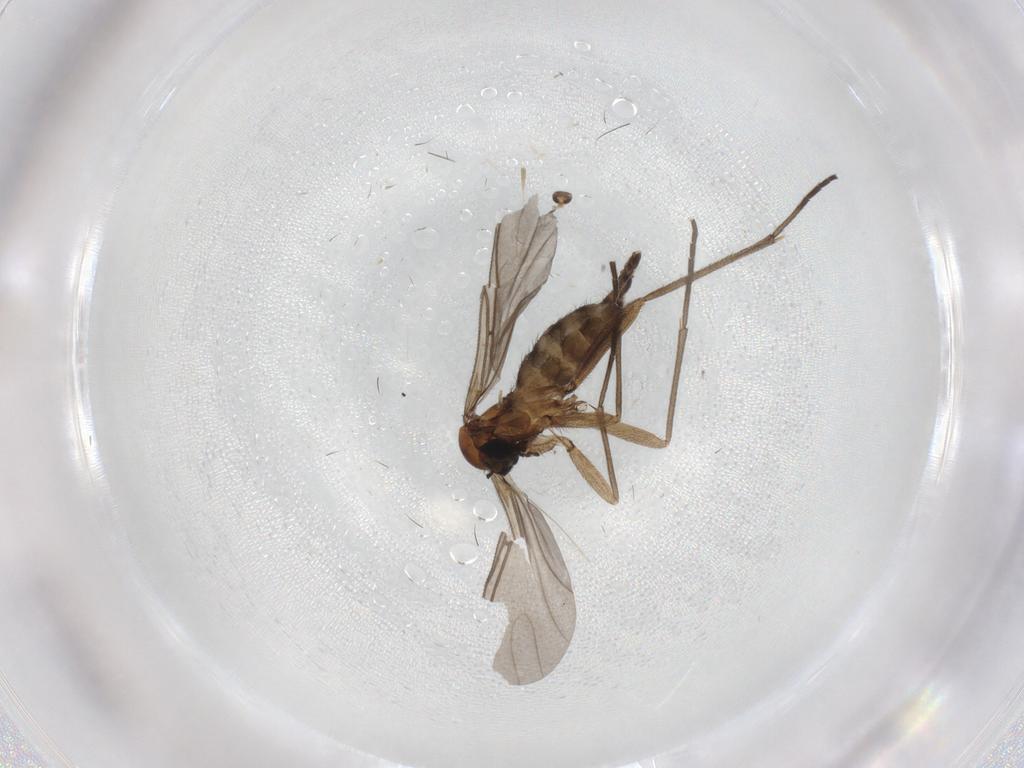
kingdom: Animalia
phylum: Arthropoda
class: Insecta
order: Diptera
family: Sciaridae
